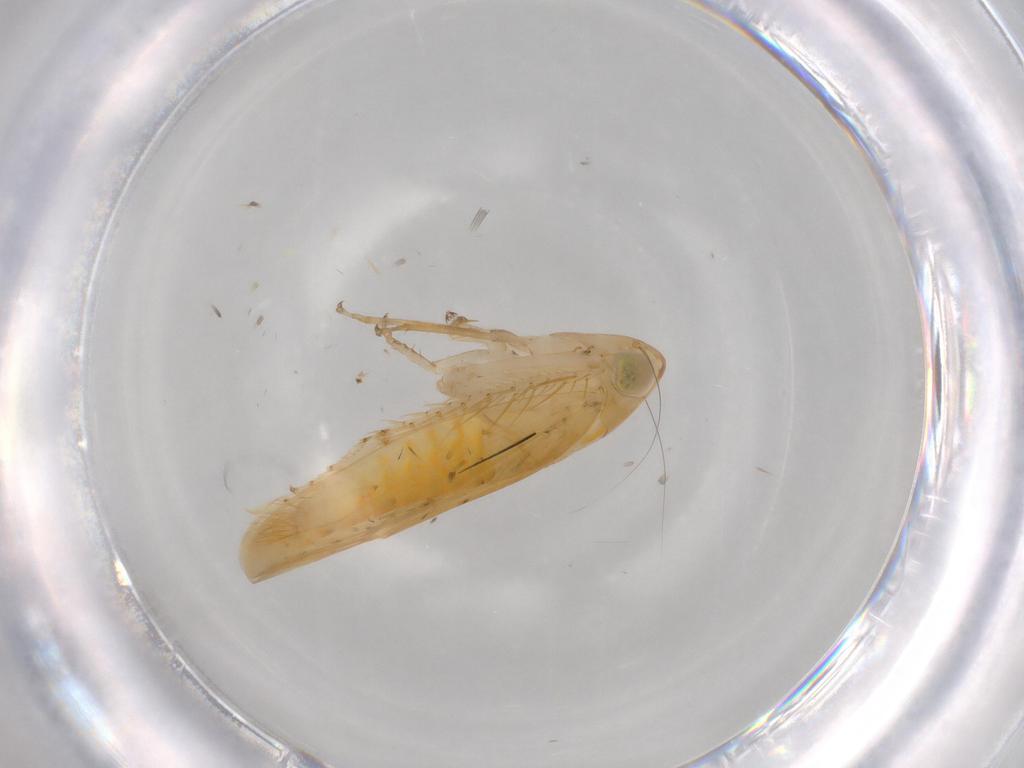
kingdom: Animalia
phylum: Arthropoda
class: Insecta
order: Hemiptera
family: Cicadellidae
